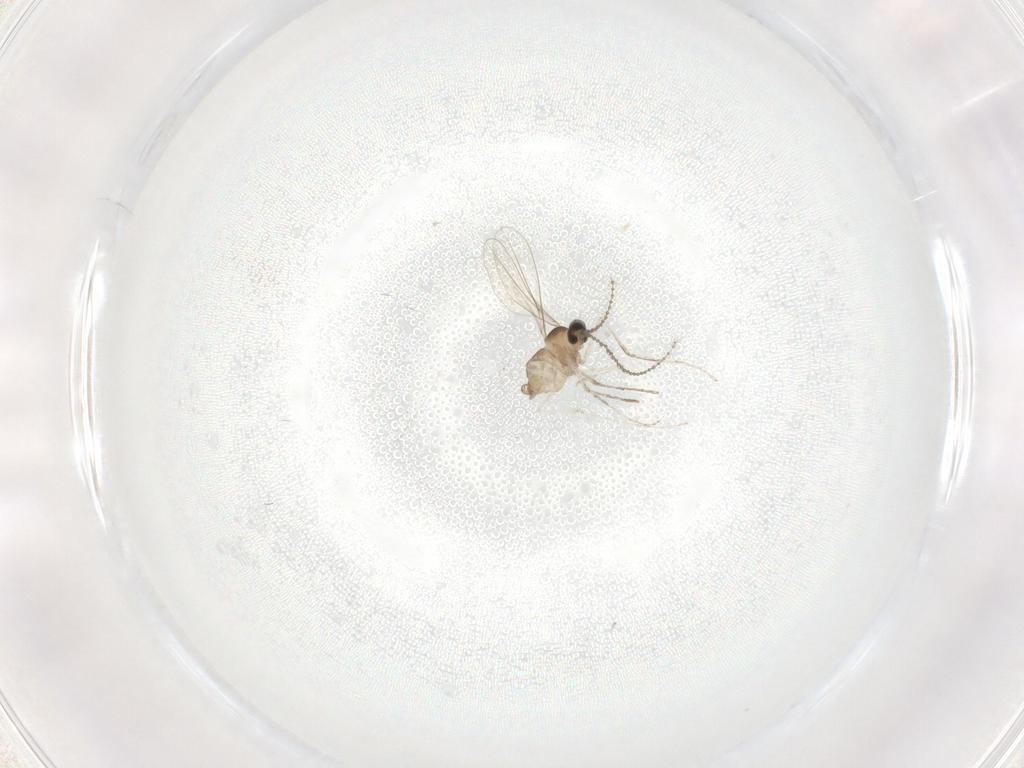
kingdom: Animalia
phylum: Arthropoda
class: Insecta
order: Diptera
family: Cecidomyiidae
